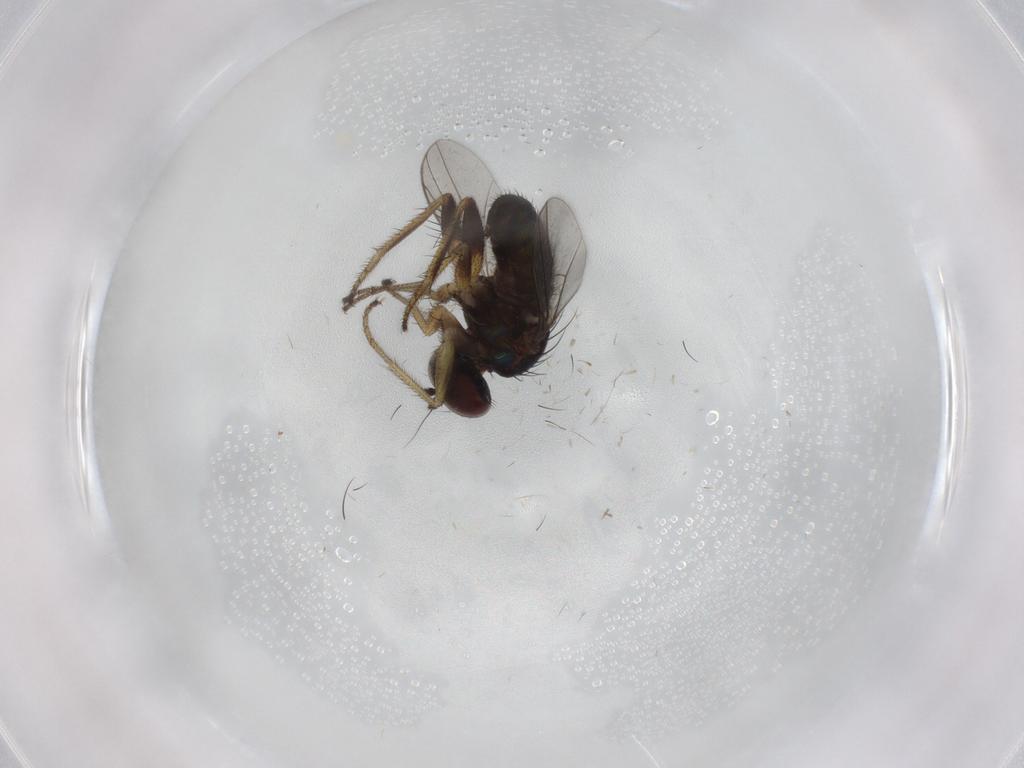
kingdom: Animalia
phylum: Arthropoda
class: Insecta
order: Diptera
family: Dolichopodidae
